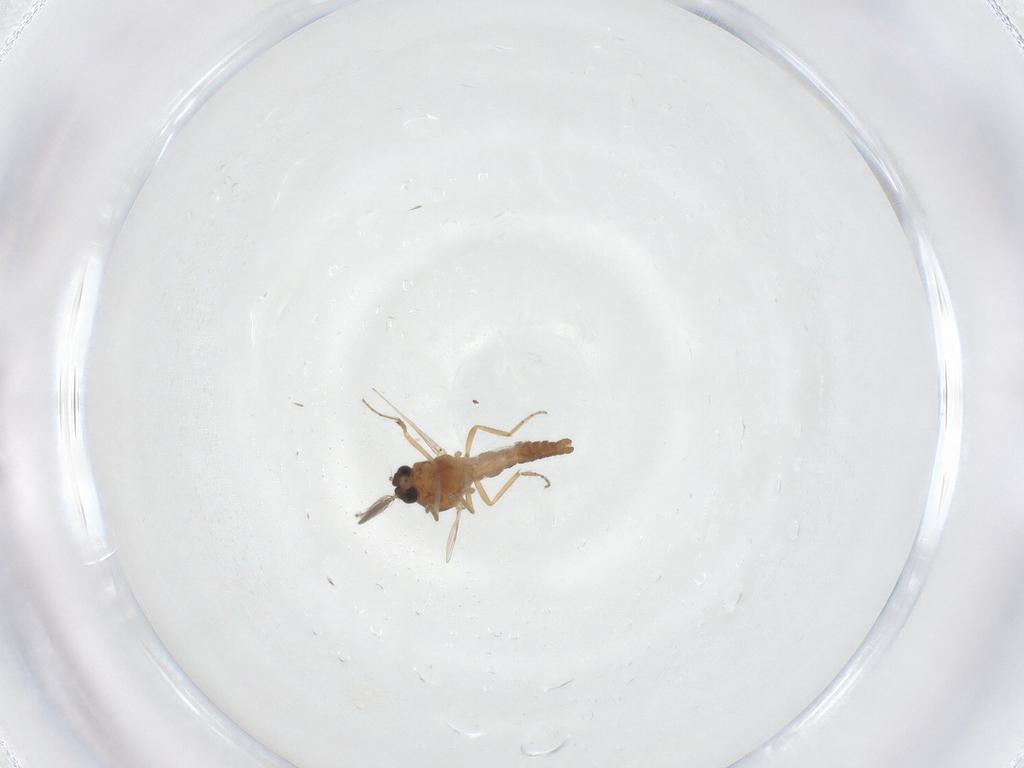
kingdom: Animalia
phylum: Arthropoda
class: Insecta
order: Diptera
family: Ceratopogonidae
